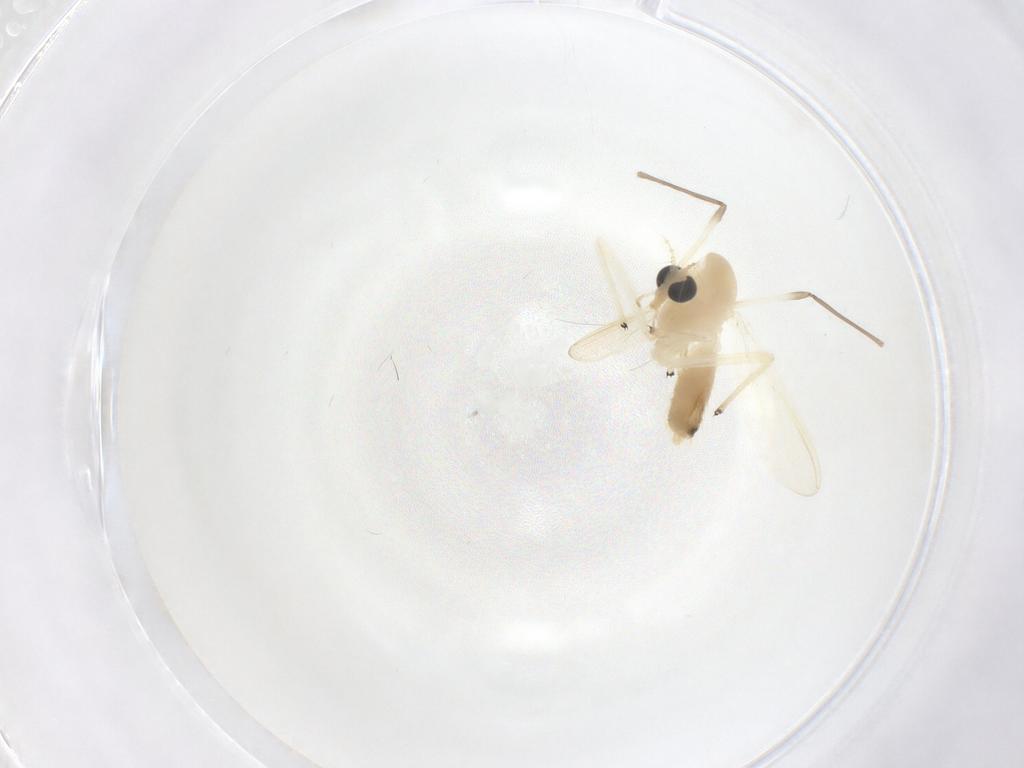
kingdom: Animalia
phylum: Arthropoda
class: Insecta
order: Diptera
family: Chironomidae
